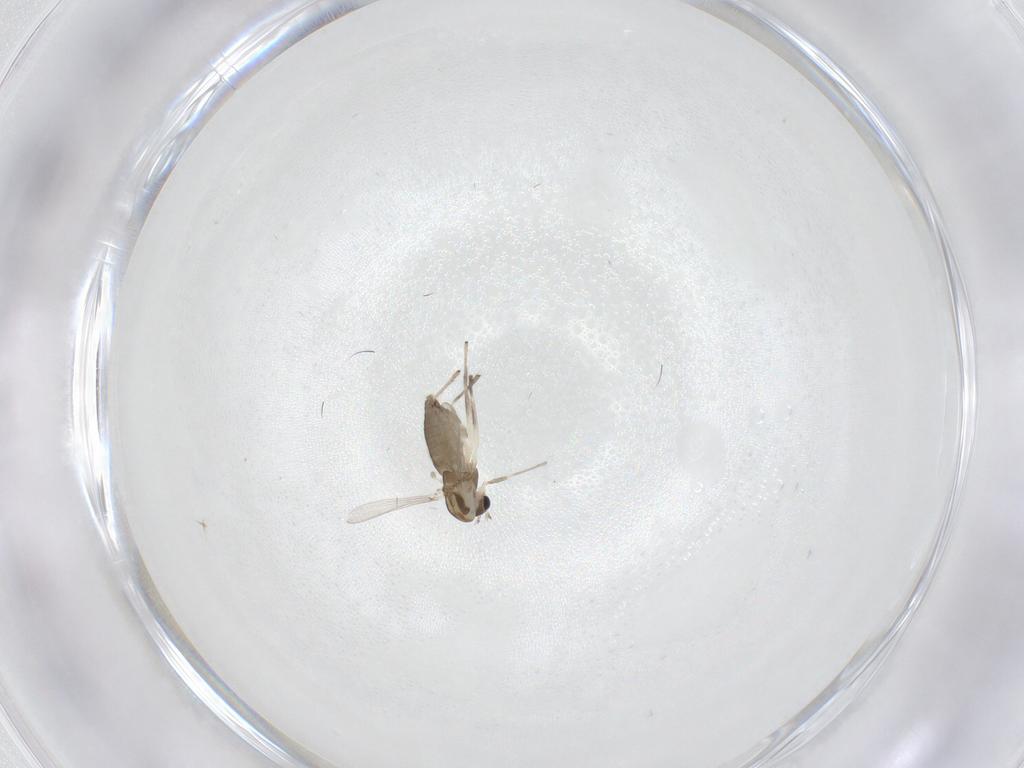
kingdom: Animalia
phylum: Arthropoda
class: Insecta
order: Diptera
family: Chironomidae
